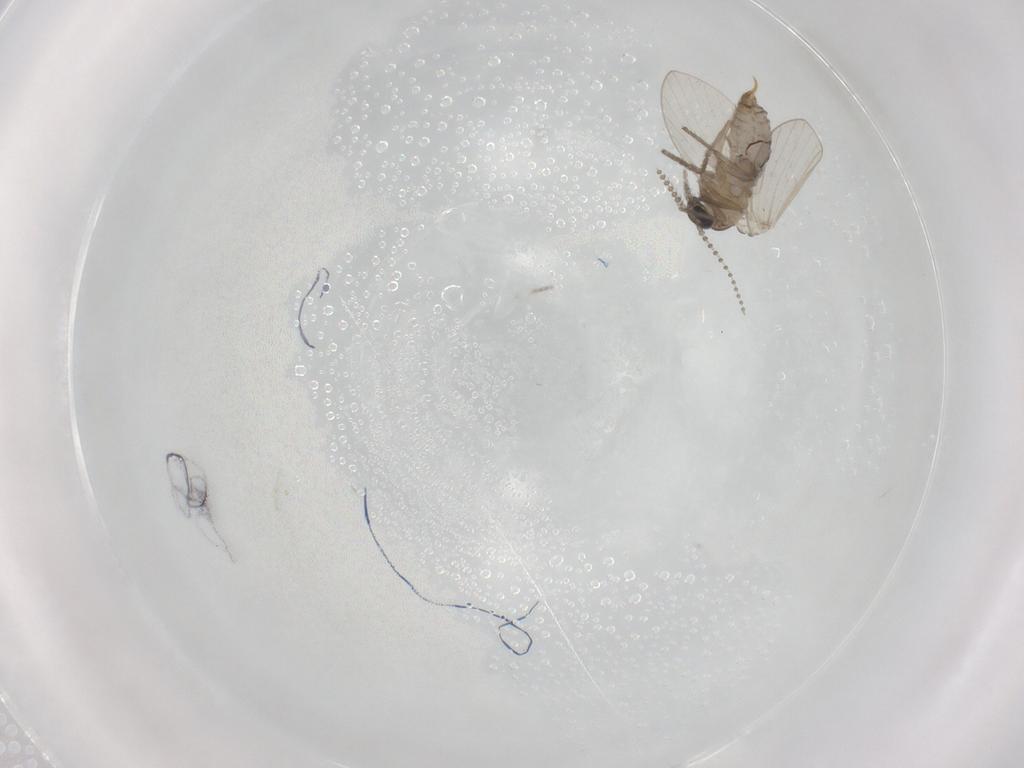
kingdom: Animalia
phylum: Arthropoda
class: Insecta
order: Diptera
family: Psychodidae
